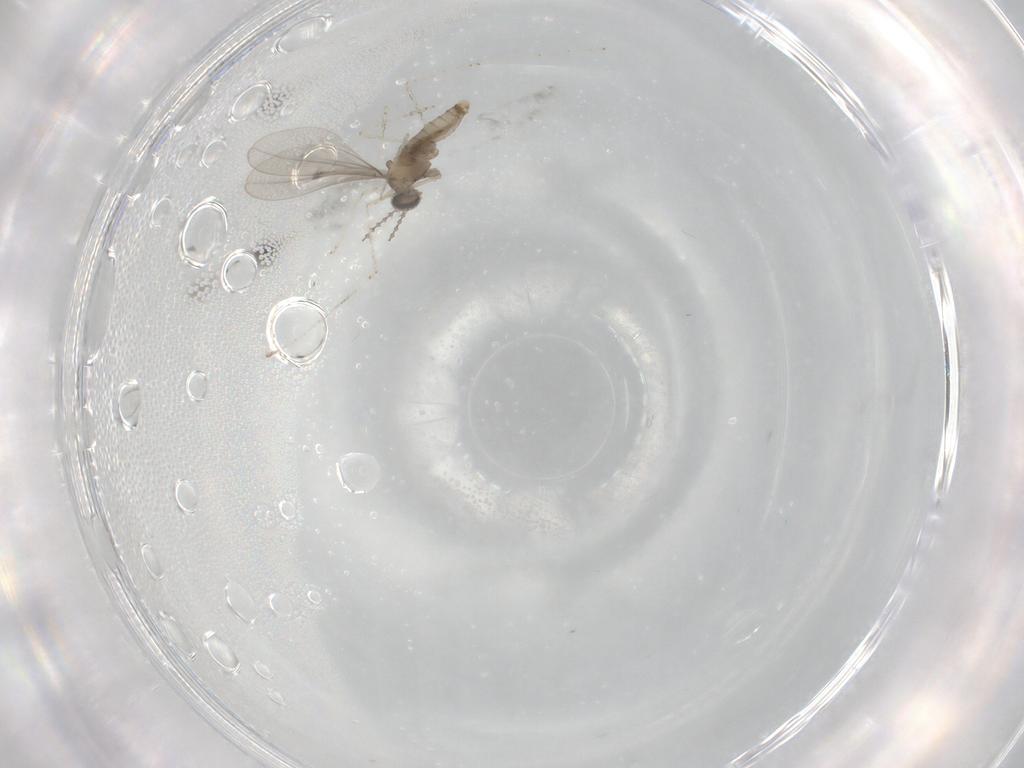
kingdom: Animalia
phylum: Arthropoda
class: Insecta
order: Diptera
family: Cecidomyiidae
